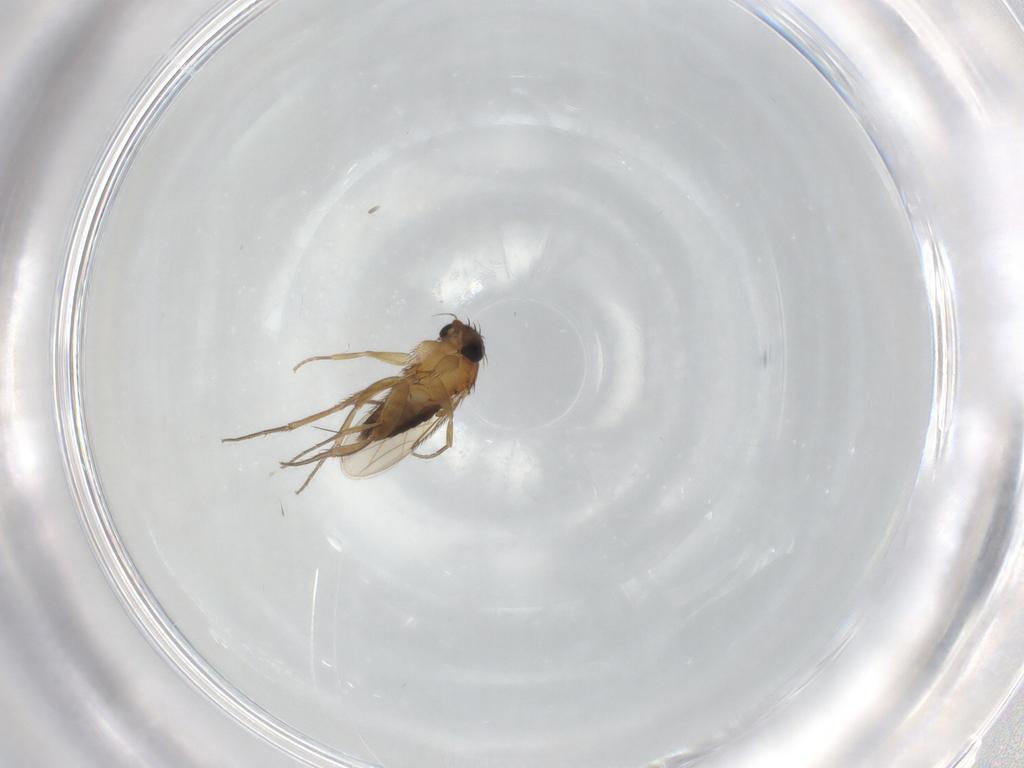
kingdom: Animalia
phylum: Arthropoda
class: Insecta
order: Diptera
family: Phoridae
